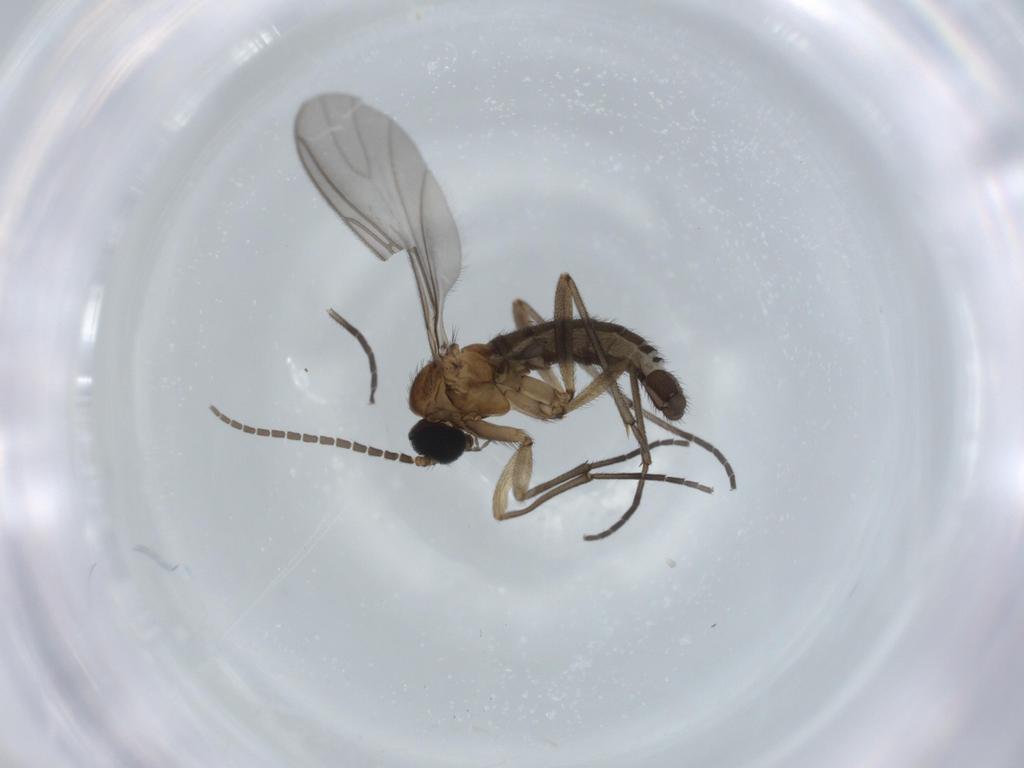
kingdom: Animalia
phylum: Arthropoda
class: Insecta
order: Diptera
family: Sciaridae
